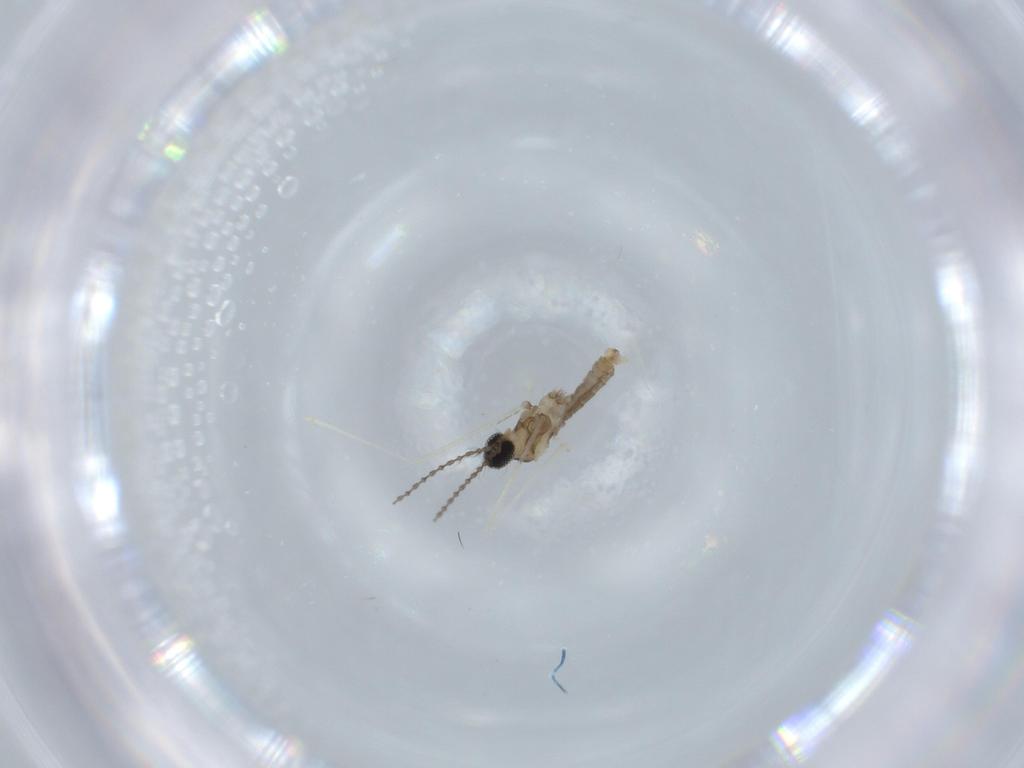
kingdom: Animalia
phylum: Arthropoda
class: Insecta
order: Diptera
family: Cecidomyiidae
